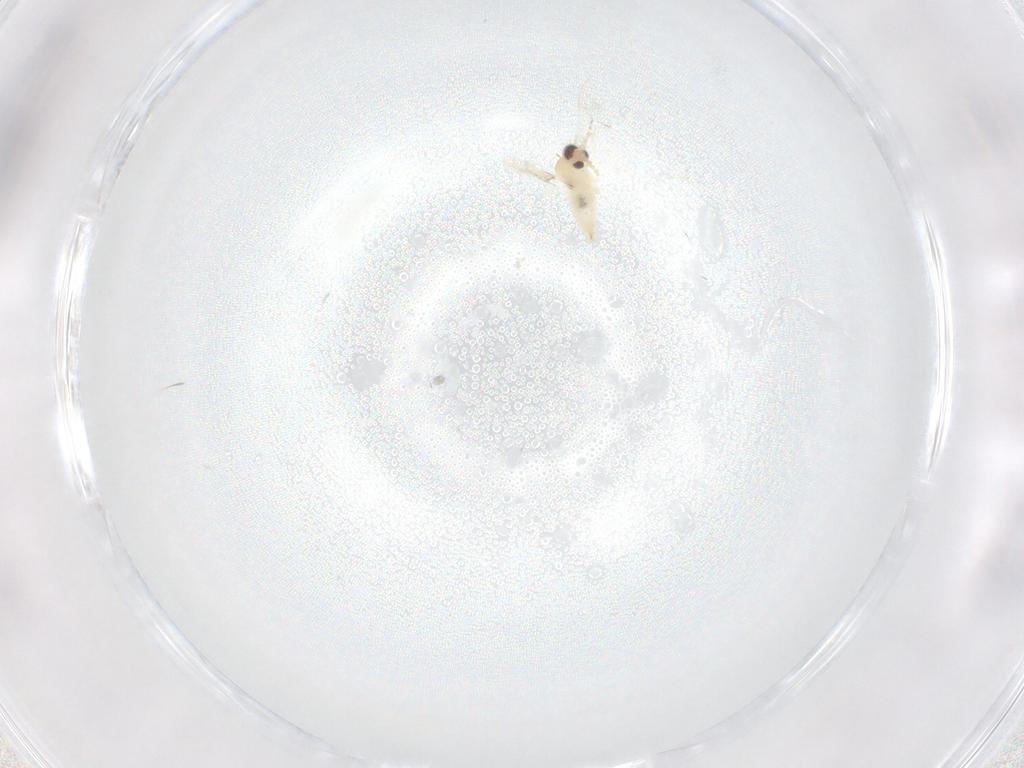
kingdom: Animalia
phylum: Arthropoda
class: Insecta
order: Diptera
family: Cecidomyiidae
